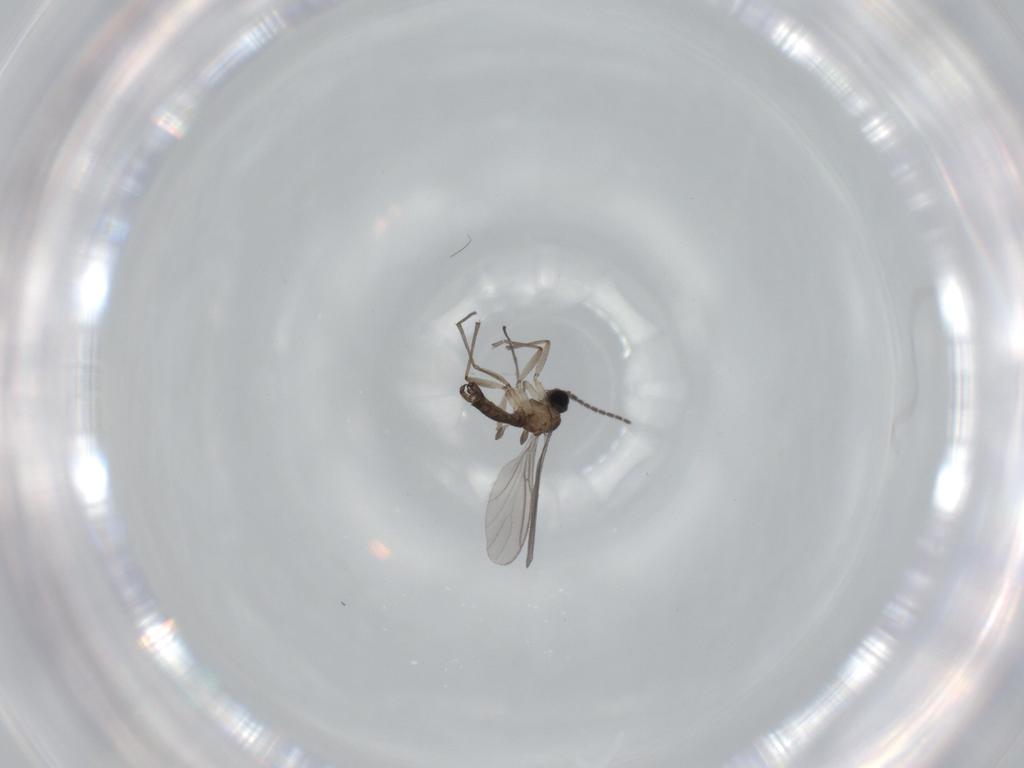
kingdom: Animalia
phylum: Arthropoda
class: Insecta
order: Diptera
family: Sciaridae
